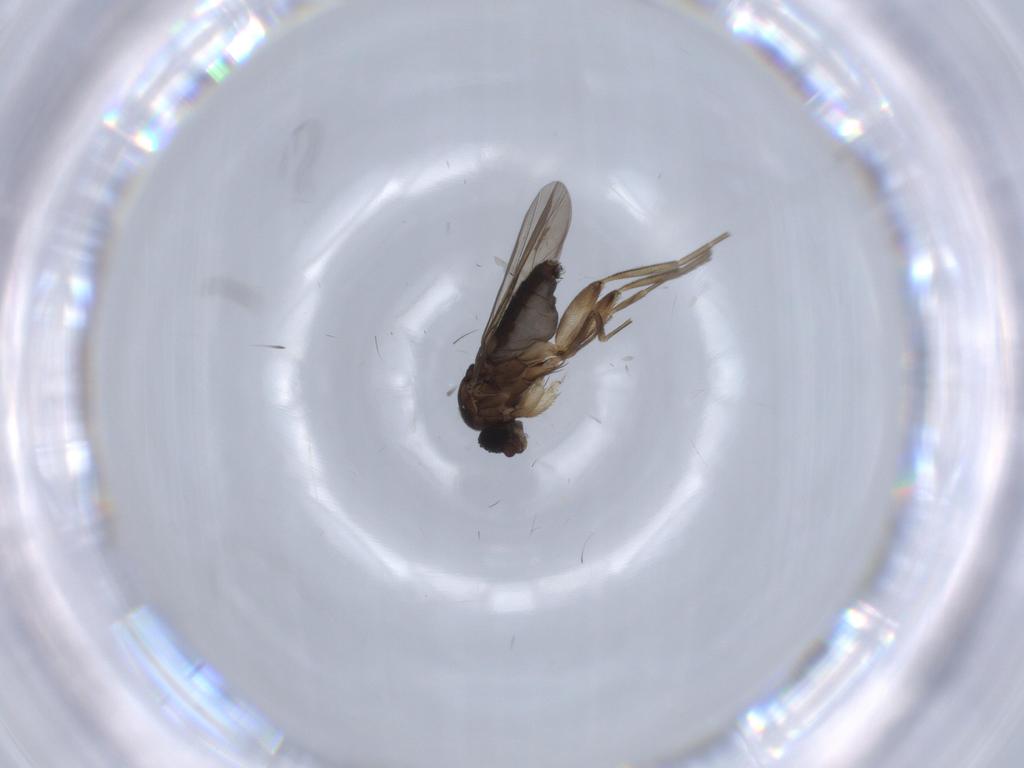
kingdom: Animalia
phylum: Arthropoda
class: Insecta
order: Diptera
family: Phoridae
